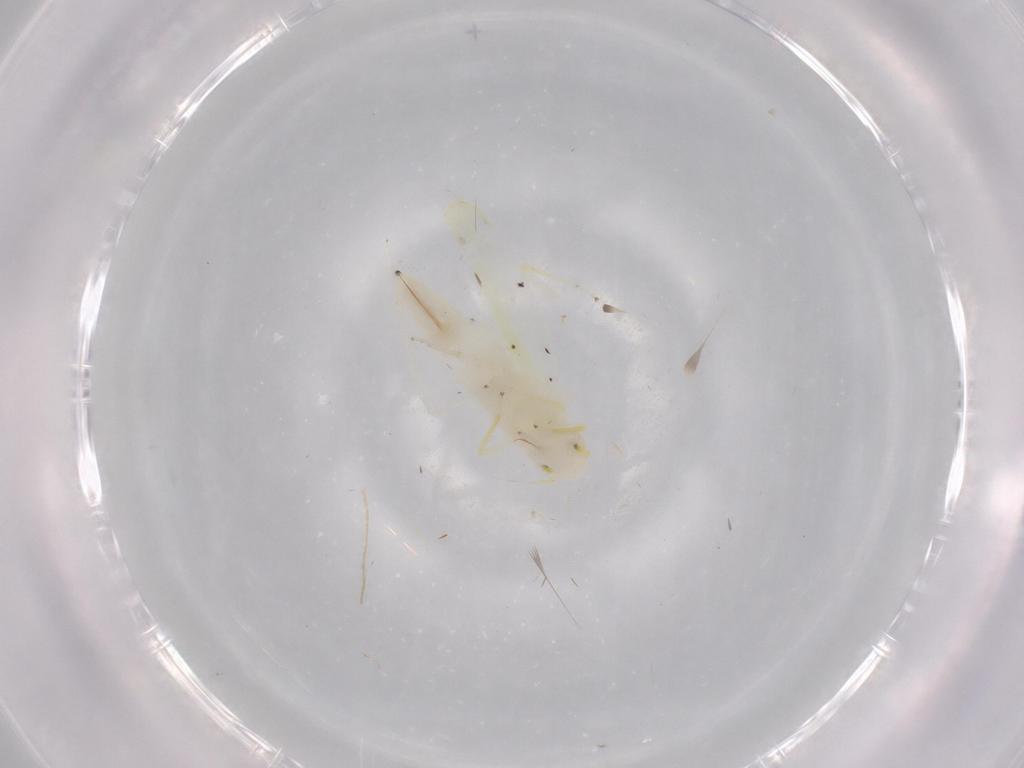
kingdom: Animalia
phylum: Arthropoda
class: Insecta
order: Hemiptera
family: Cicadellidae
